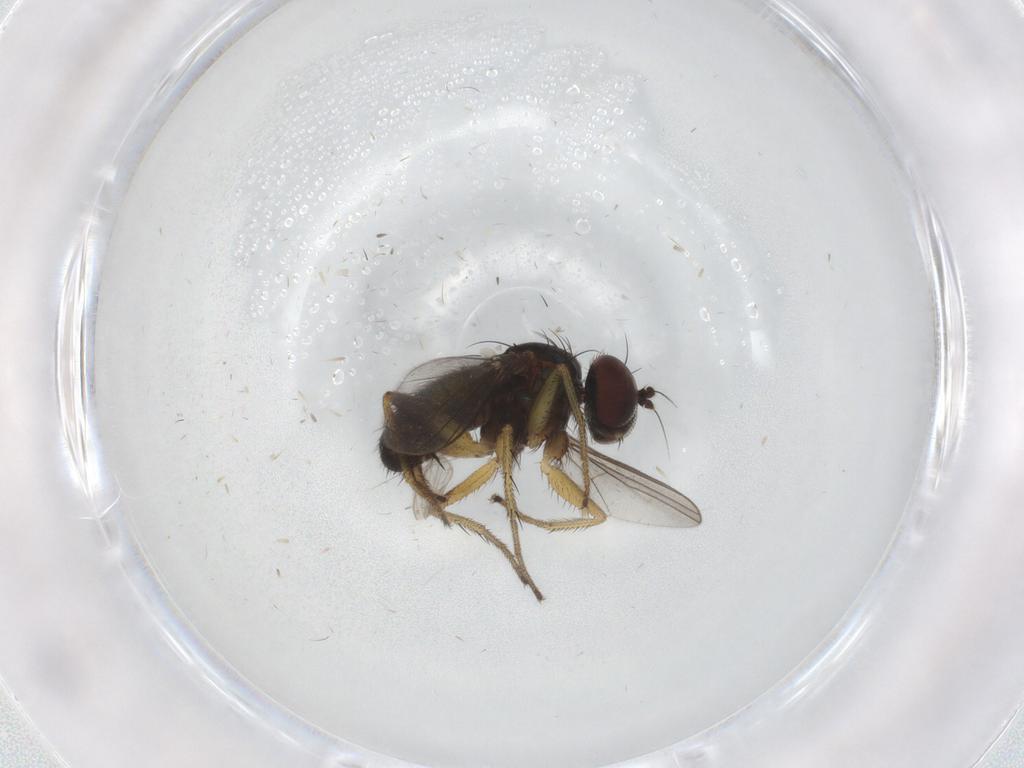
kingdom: Animalia
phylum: Arthropoda
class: Insecta
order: Diptera
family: Dolichopodidae
